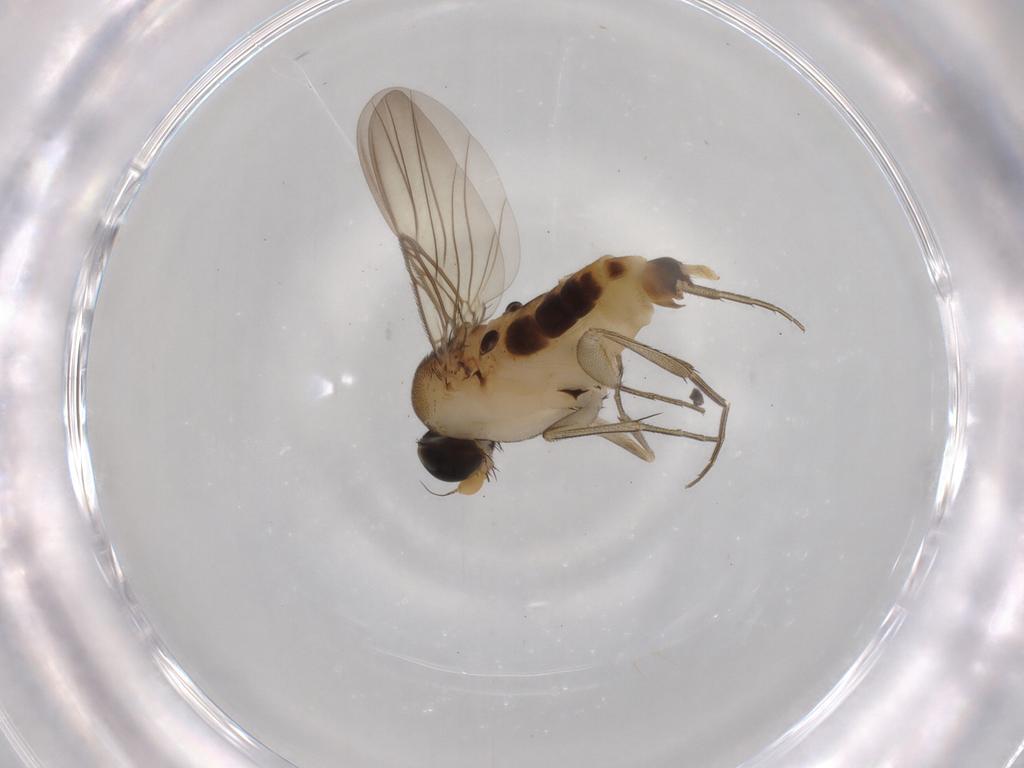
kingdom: Animalia
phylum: Arthropoda
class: Insecta
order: Diptera
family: Phoridae
